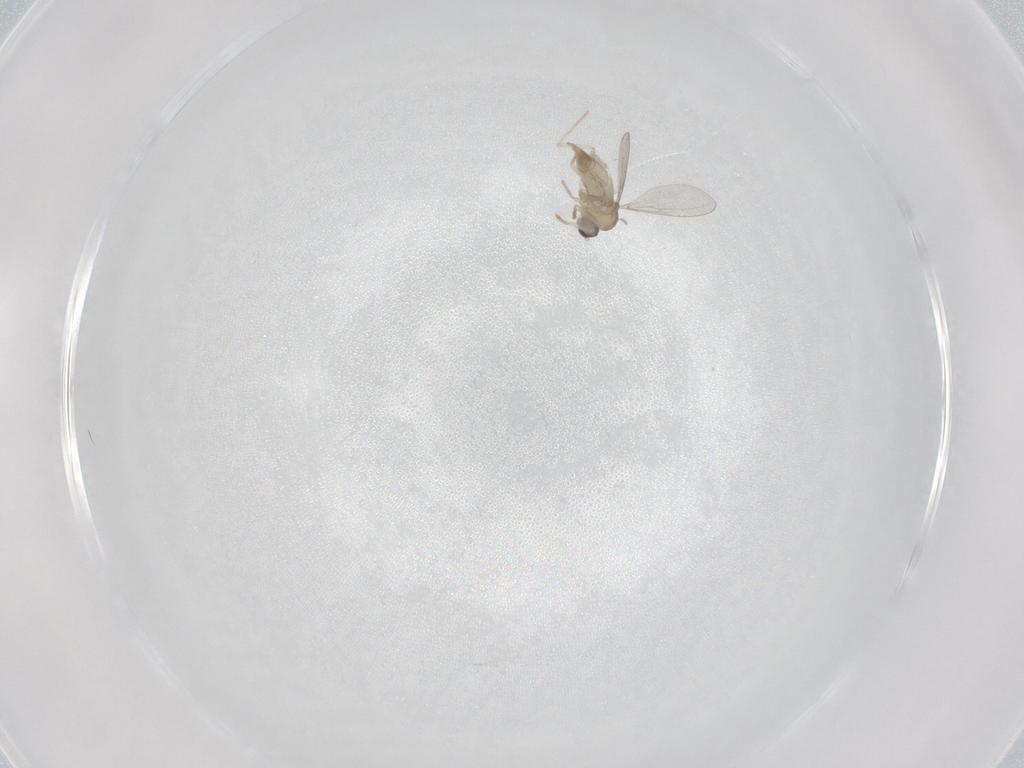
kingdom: Animalia
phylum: Arthropoda
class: Insecta
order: Diptera
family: Cecidomyiidae
